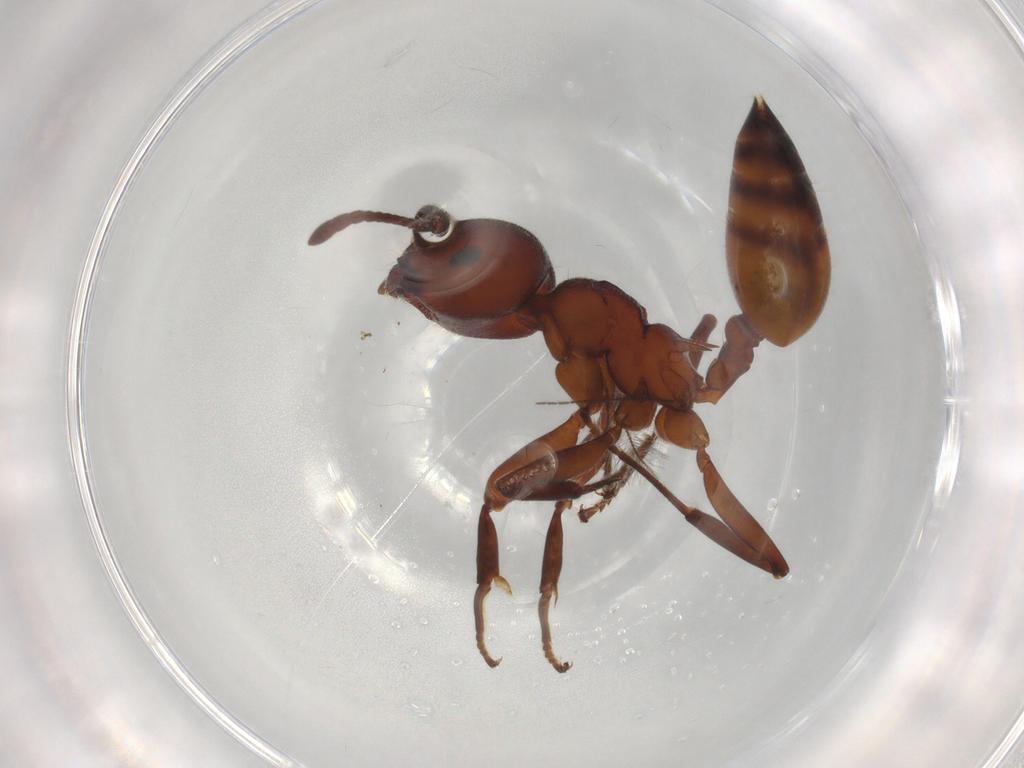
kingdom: Animalia
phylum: Arthropoda
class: Insecta
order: Hymenoptera
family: Formicidae
